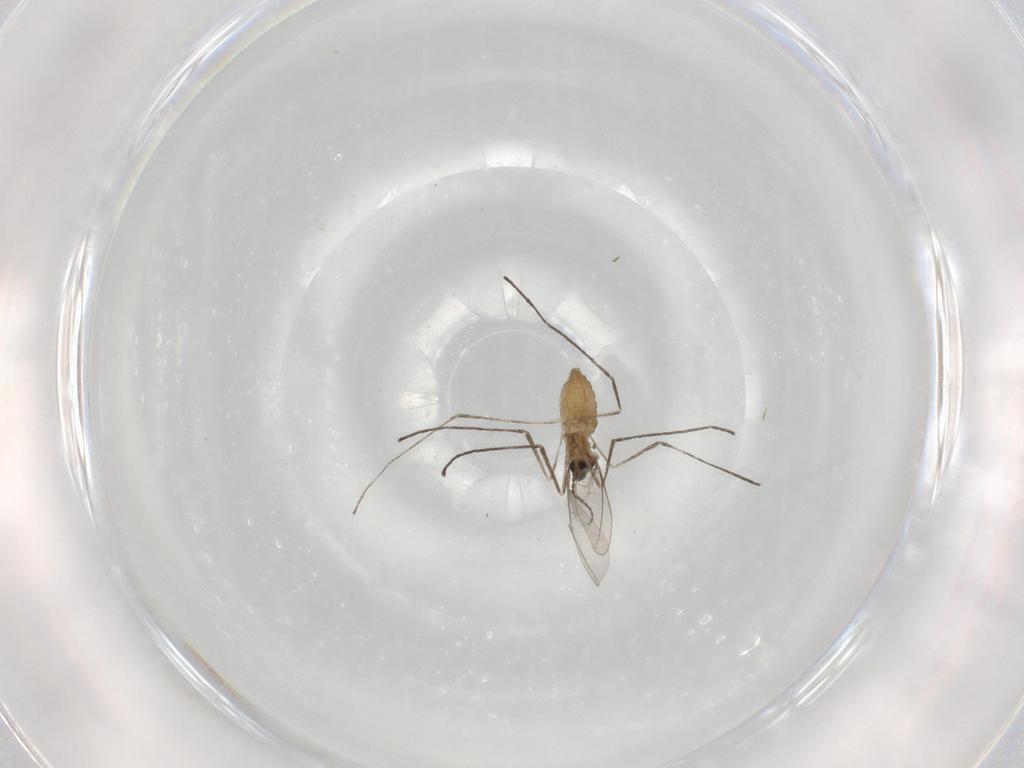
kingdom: Animalia
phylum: Arthropoda
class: Insecta
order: Diptera
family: Cecidomyiidae
